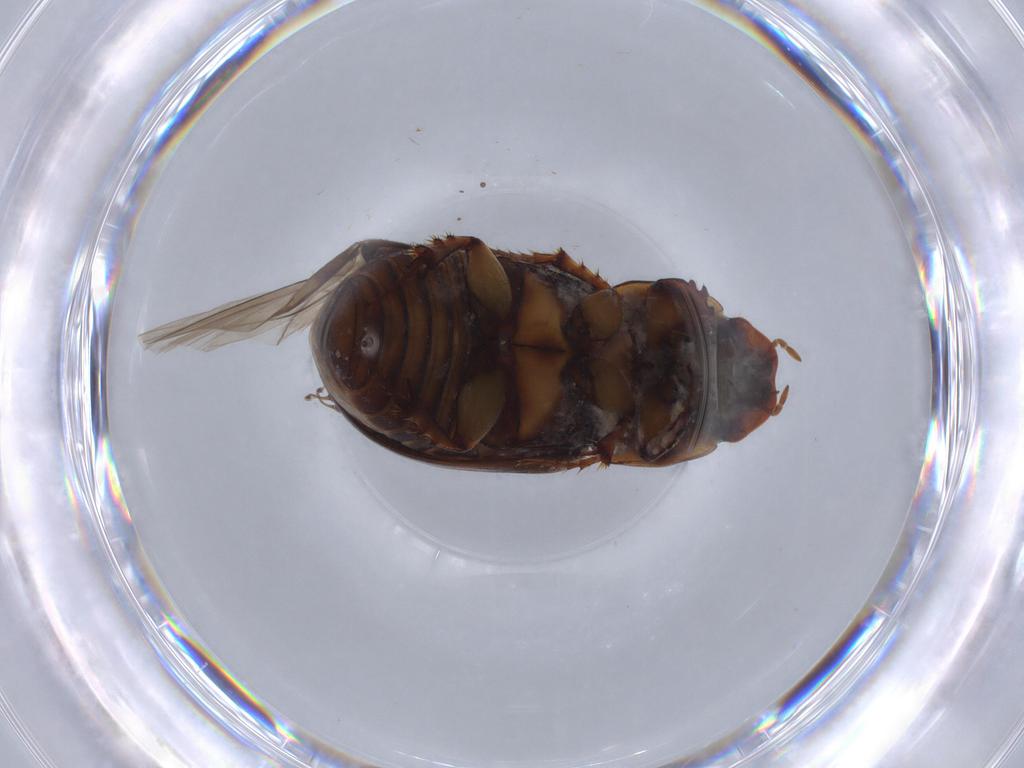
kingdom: Animalia
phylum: Arthropoda
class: Insecta
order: Coleoptera
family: Scarabaeidae
